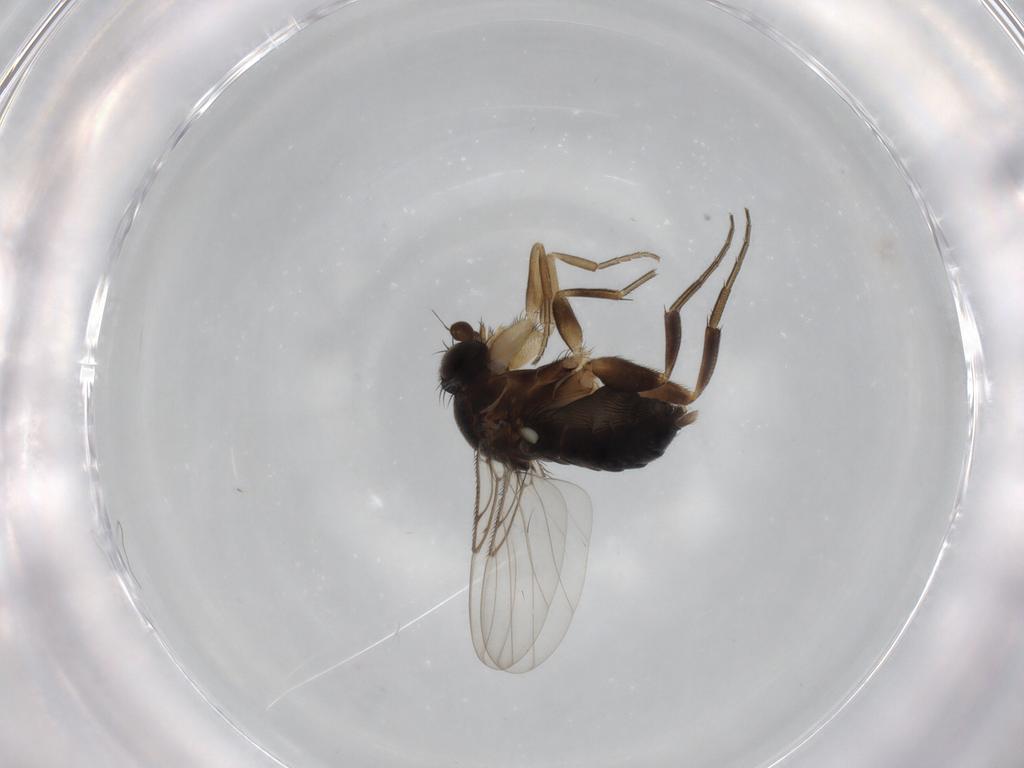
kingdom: Animalia
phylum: Arthropoda
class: Insecta
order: Diptera
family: Phoridae
